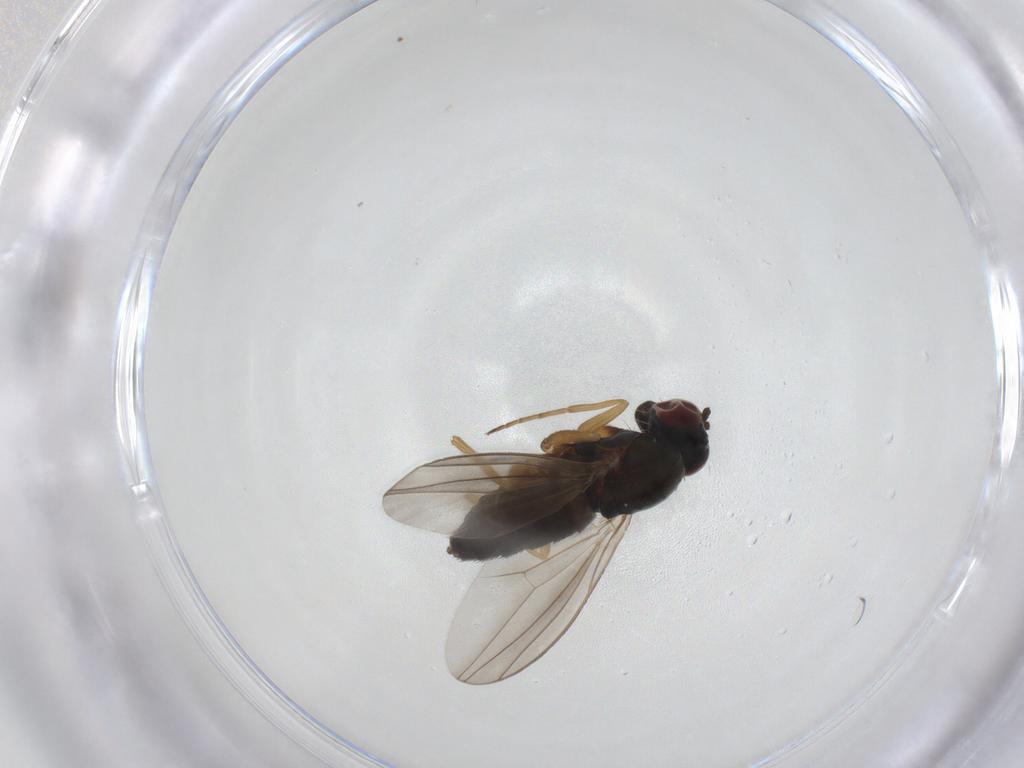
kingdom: Animalia
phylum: Arthropoda
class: Insecta
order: Diptera
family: Dolichopodidae
